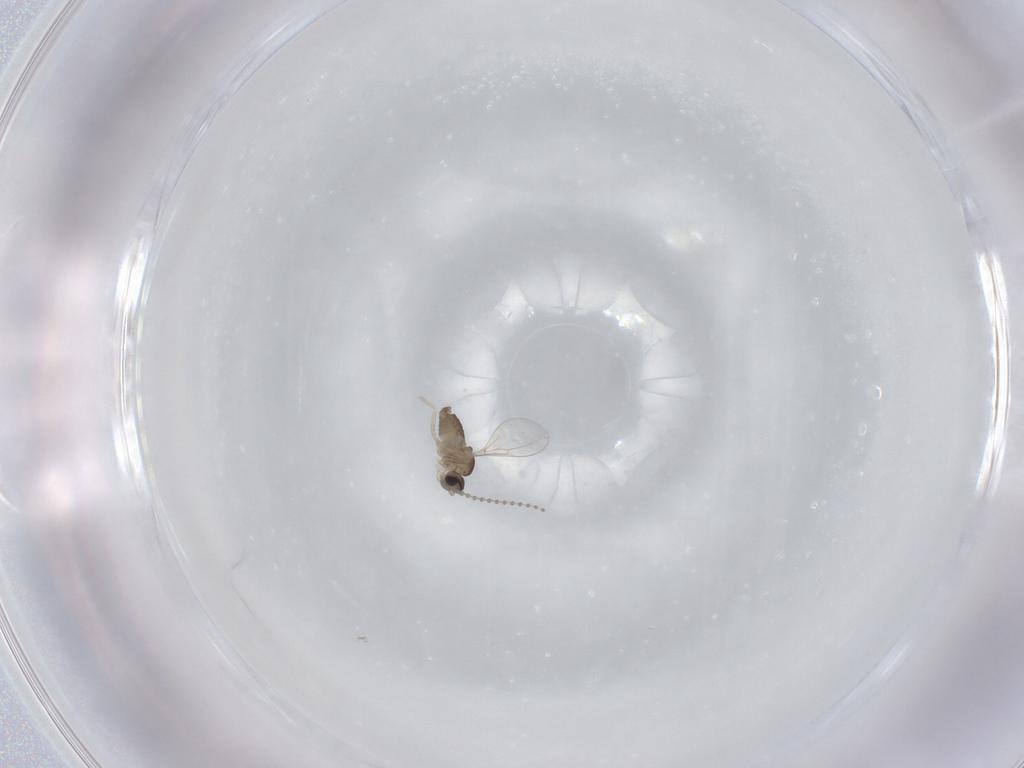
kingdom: Animalia
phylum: Arthropoda
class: Insecta
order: Diptera
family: Cecidomyiidae
